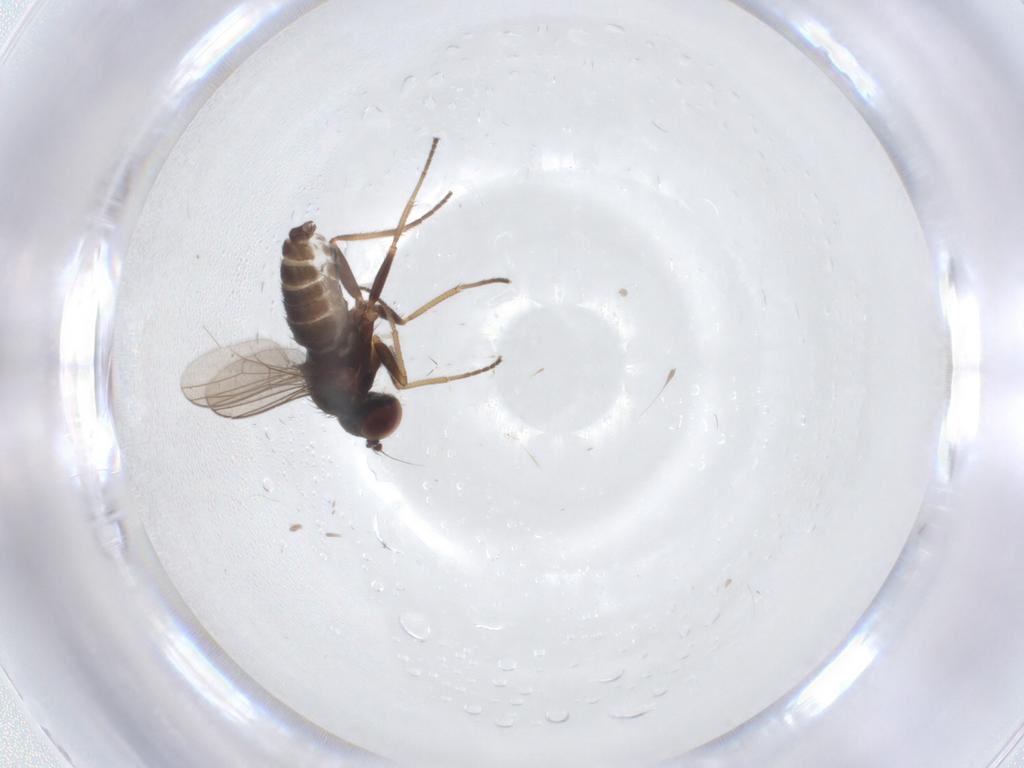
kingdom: Animalia
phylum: Arthropoda
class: Insecta
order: Diptera
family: Dolichopodidae
